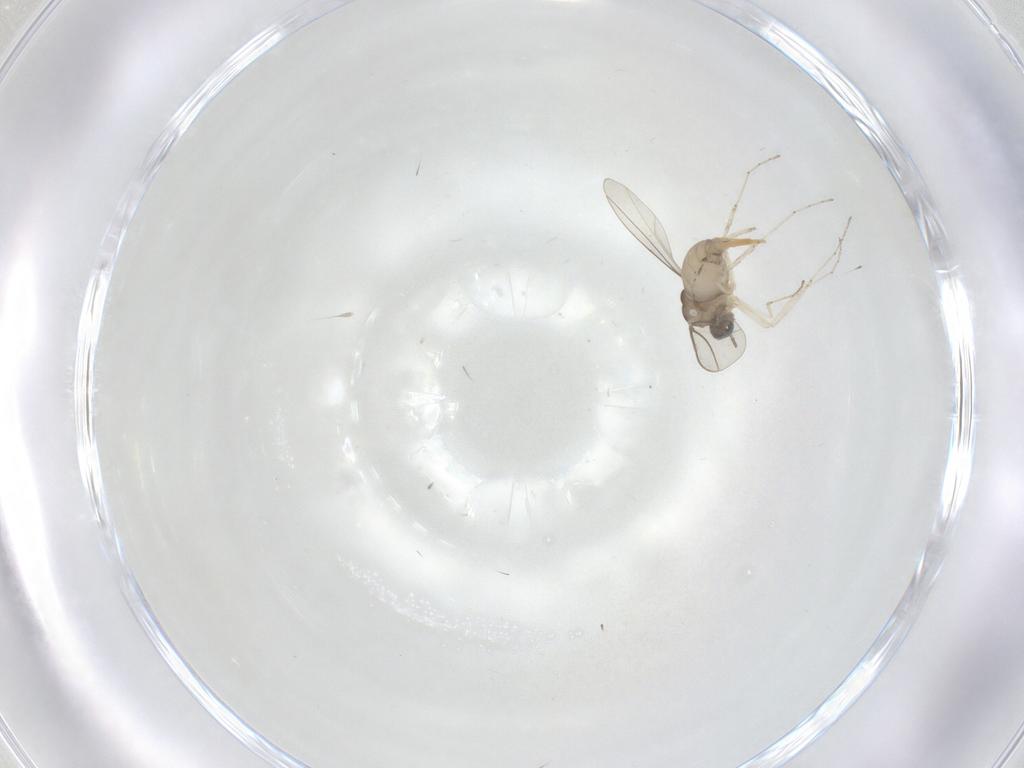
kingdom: Animalia
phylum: Arthropoda
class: Insecta
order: Diptera
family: Cecidomyiidae
